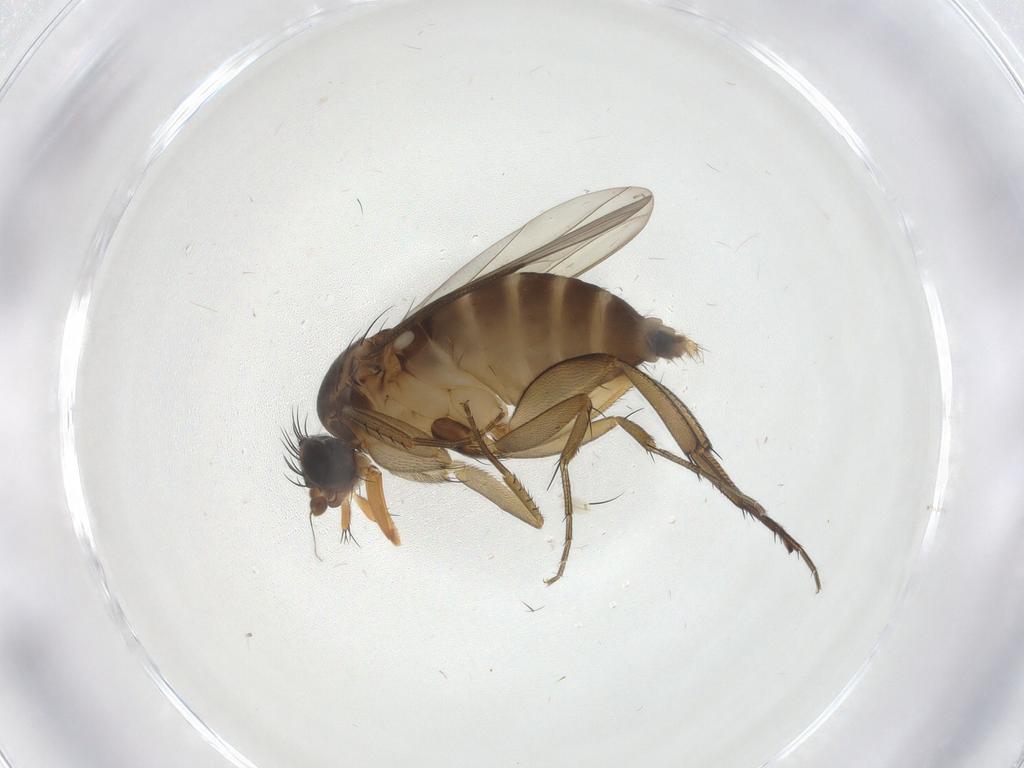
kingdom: Animalia
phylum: Arthropoda
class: Insecta
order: Diptera
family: Phoridae
